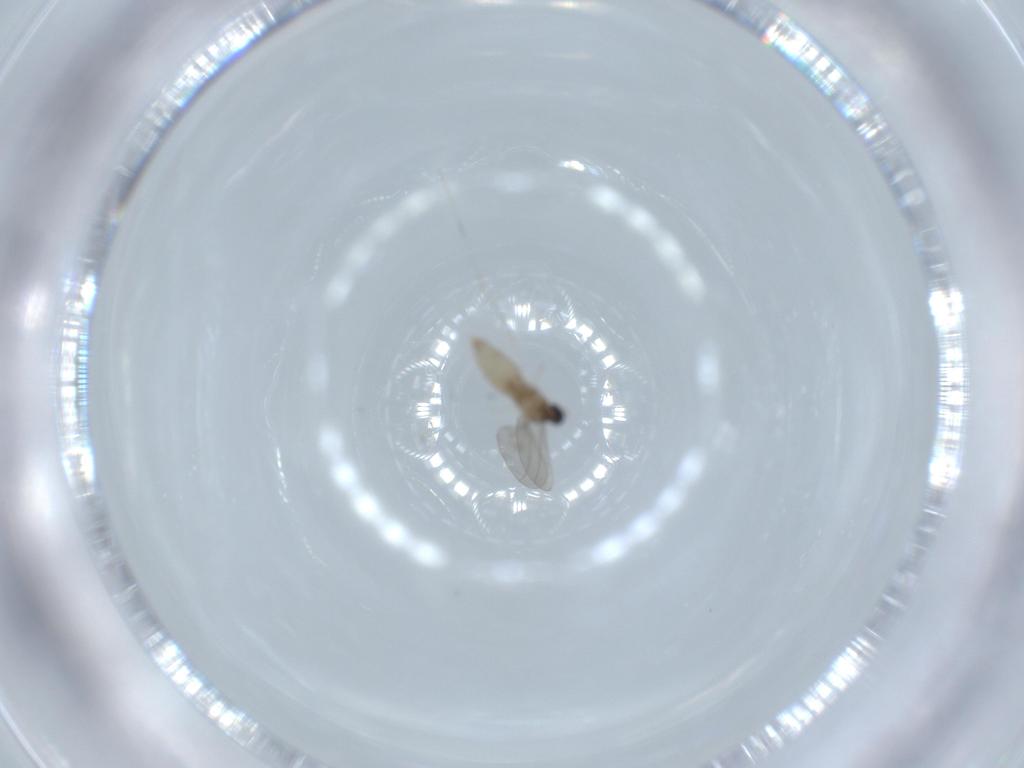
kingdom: Animalia
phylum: Arthropoda
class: Insecta
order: Diptera
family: Cecidomyiidae
